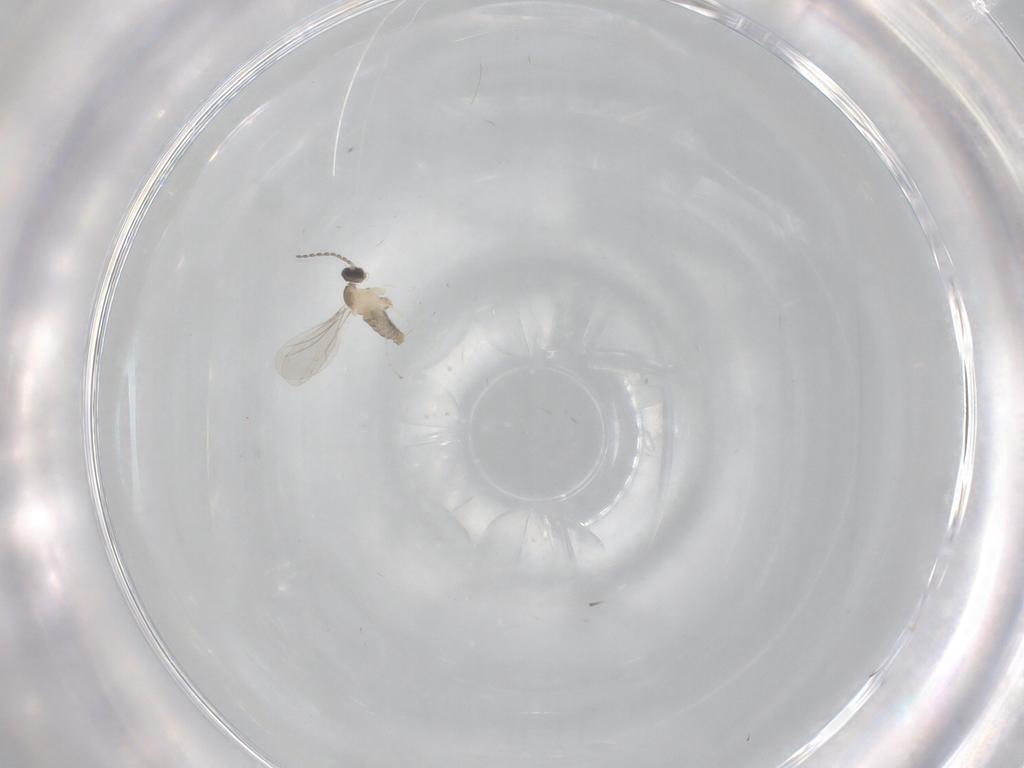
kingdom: Animalia
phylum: Arthropoda
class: Insecta
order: Diptera
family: Cecidomyiidae
